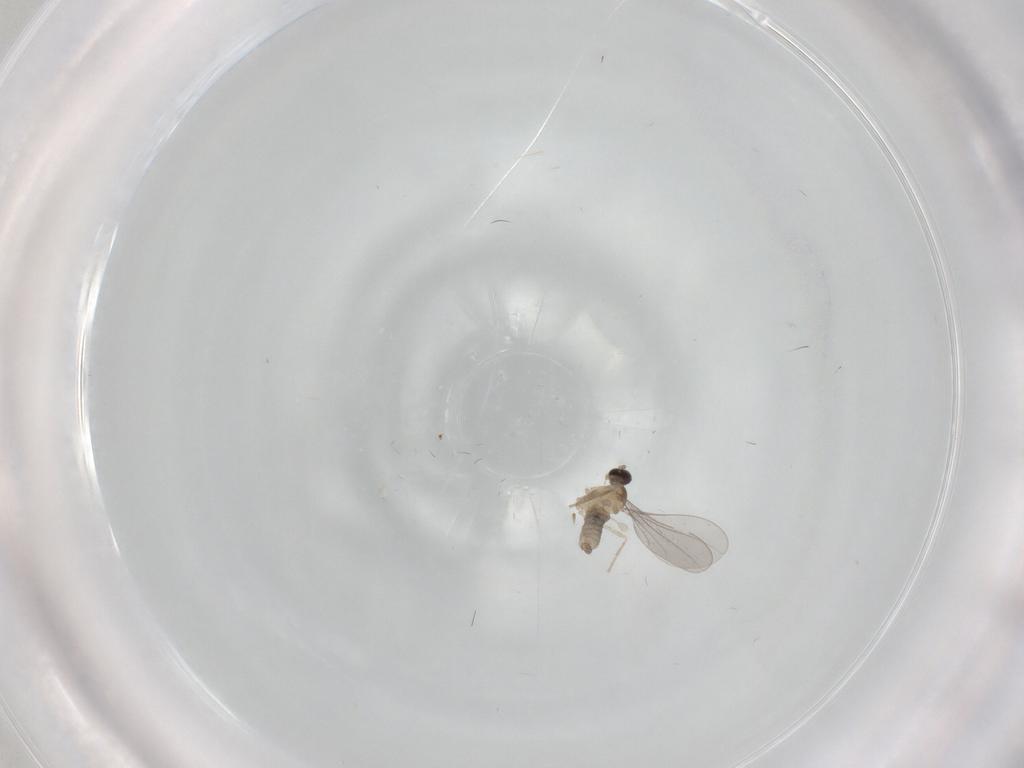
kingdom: Animalia
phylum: Arthropoda
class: Insecta
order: Diptera
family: Cecidomyiidae
